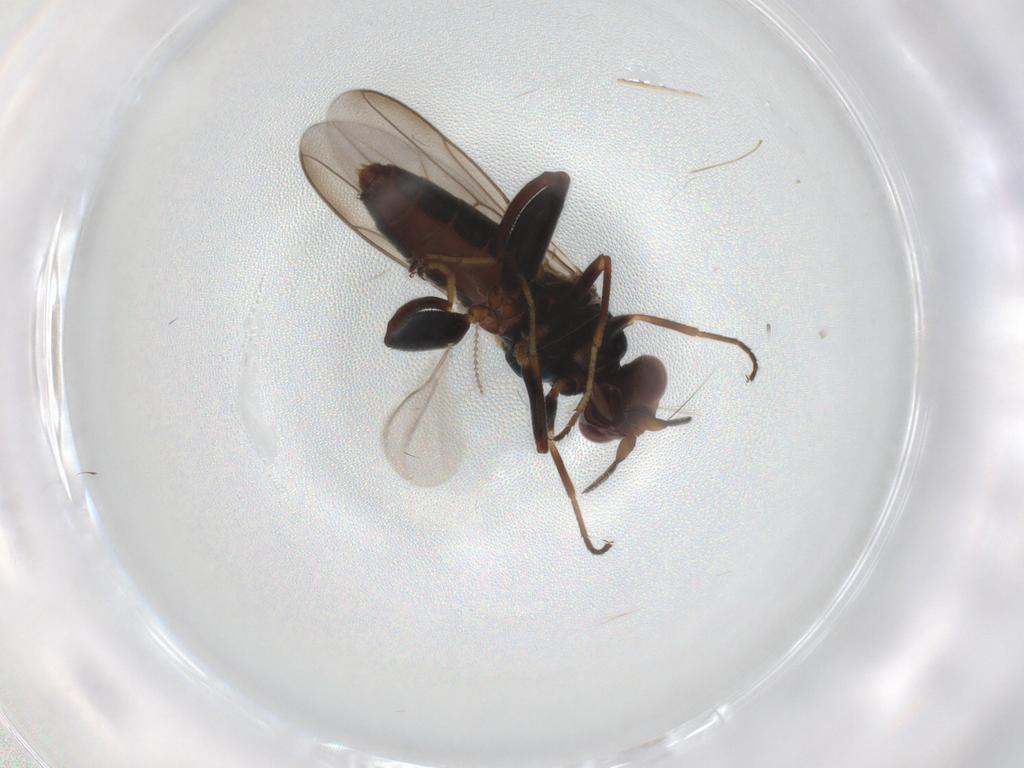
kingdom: Animalia
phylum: Arthropoda
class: Insecta
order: Diptera
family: Chloropidae
